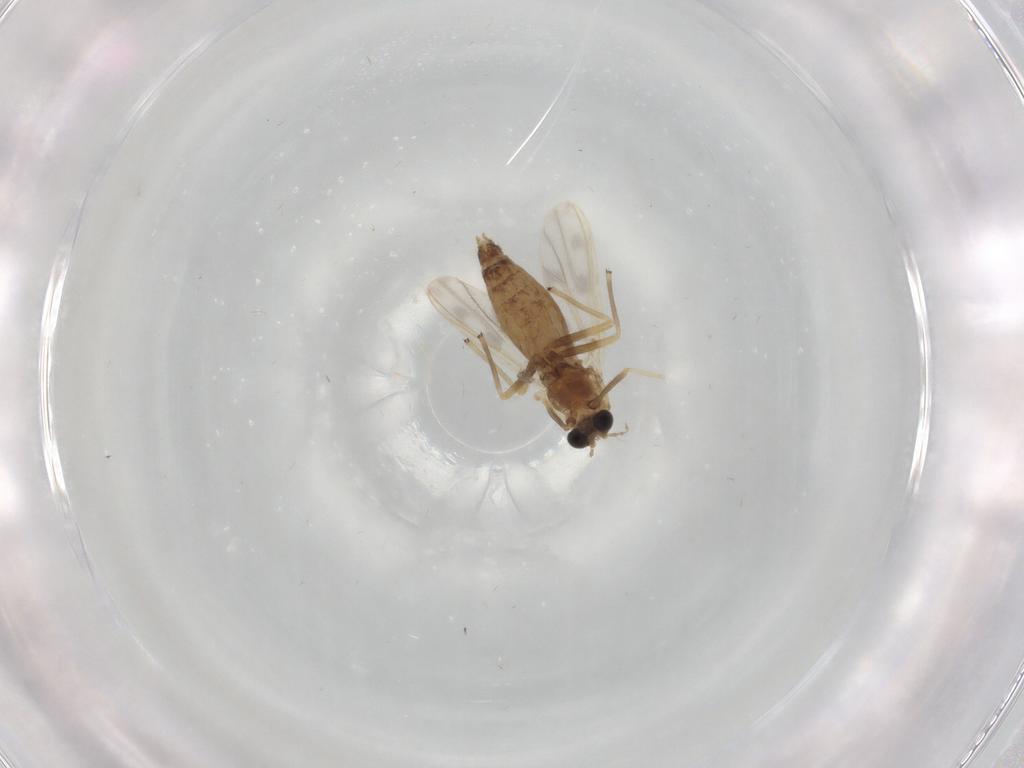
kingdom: Animalia
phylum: Arthropoda
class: Insecta
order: Diptera
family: Chironomidae
